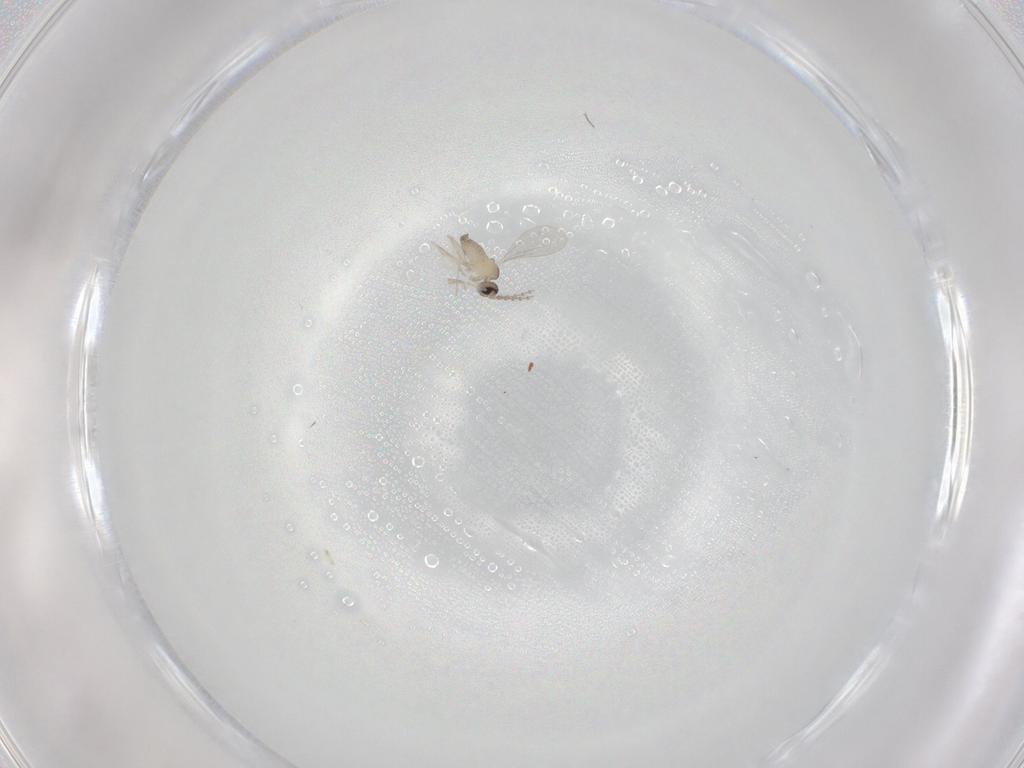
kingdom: Animalia
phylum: Arthropoda
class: Insecta
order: Diptera
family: Cecidomyiidae
